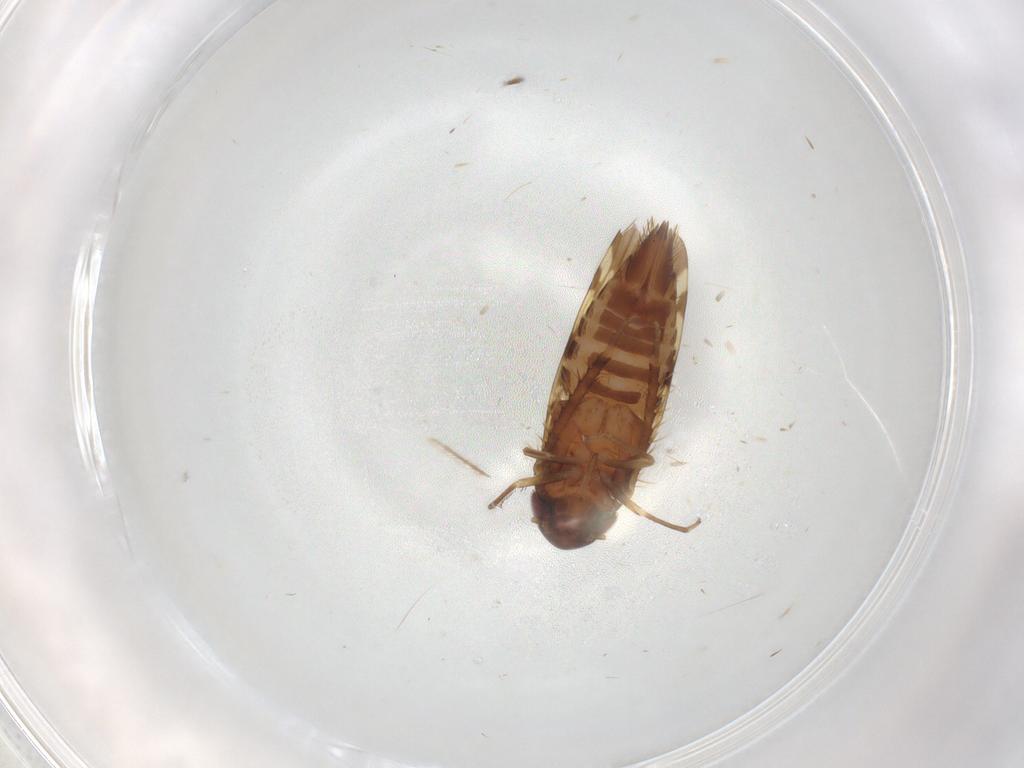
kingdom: Animalia
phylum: Arthropoda
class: Insecta
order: Hemiptera
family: Cicadellidae
